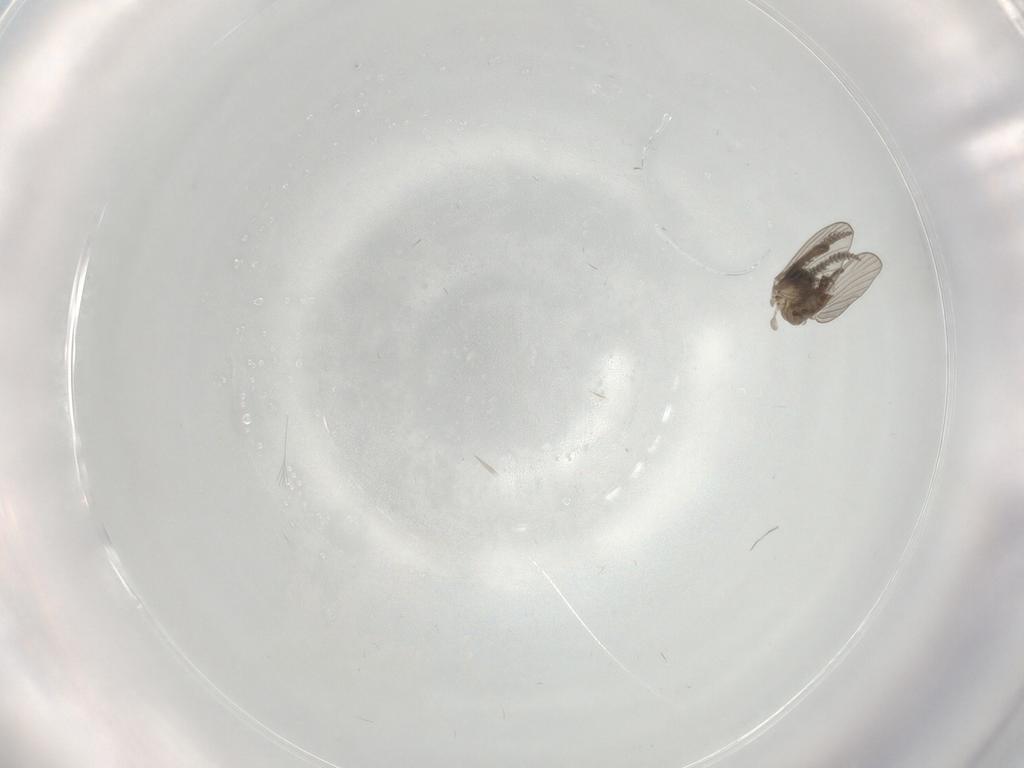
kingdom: Animalia
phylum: Arthropoda
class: Insecta
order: Diptera
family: Psychodidae
